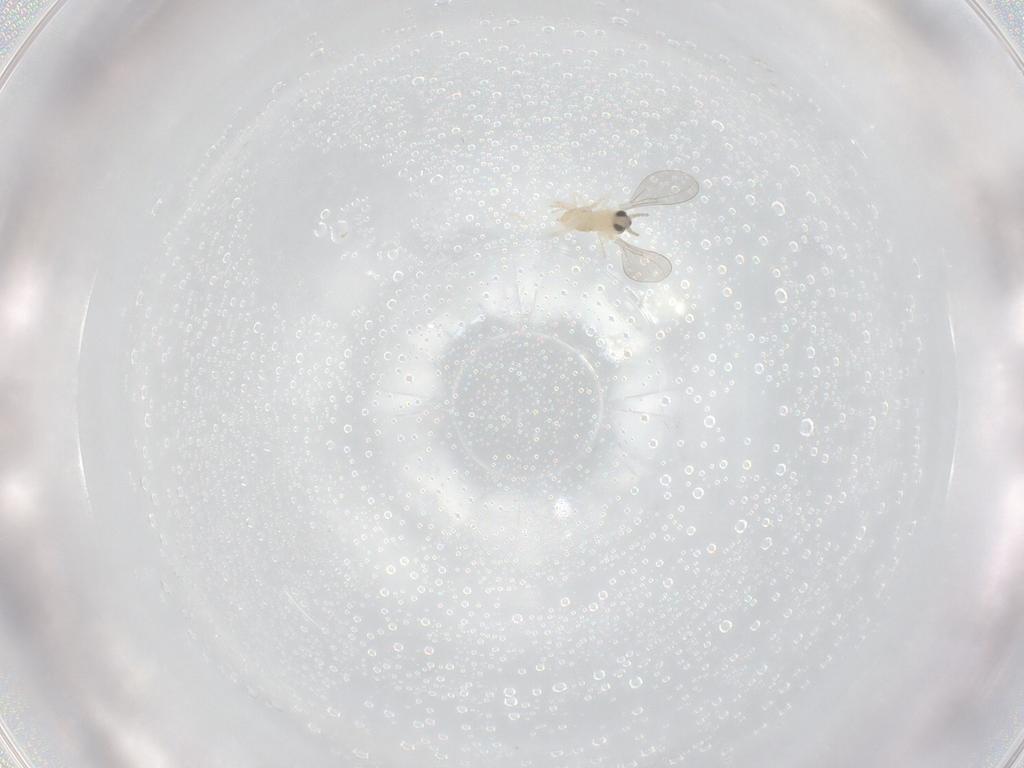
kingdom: Animalia
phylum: Arthropoda
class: Insecta
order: Diptera
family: Cecidomyiidae
